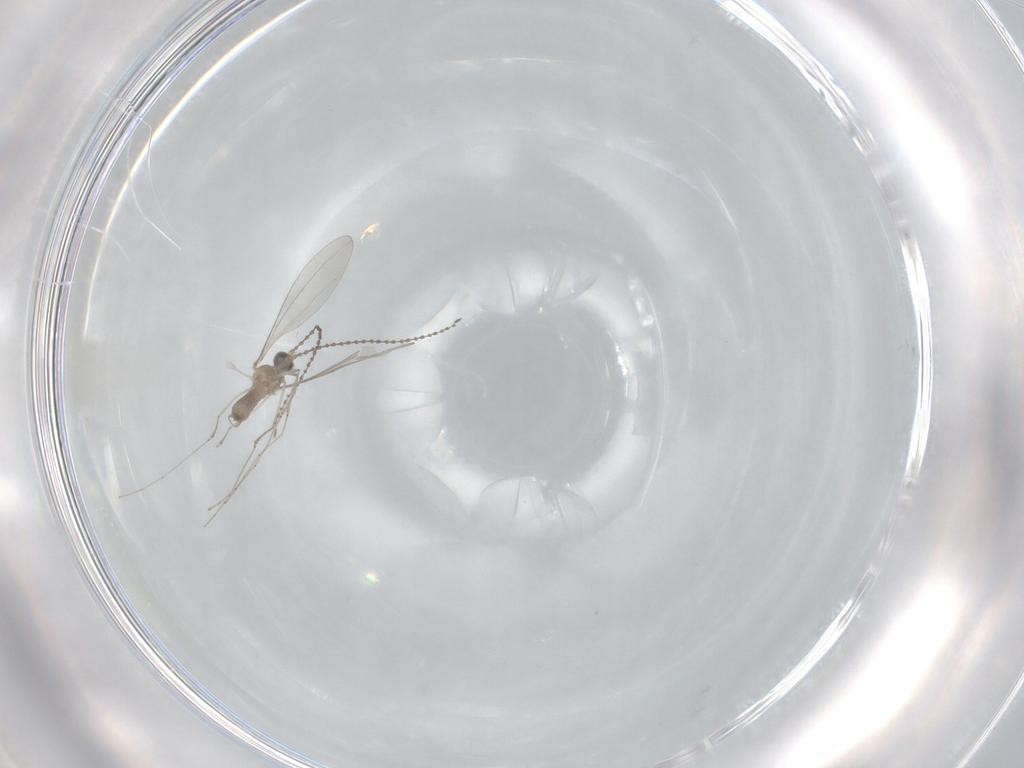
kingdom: Animalia
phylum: Arthropoda
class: Insecta
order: Diptera
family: Cecidomyiidae
